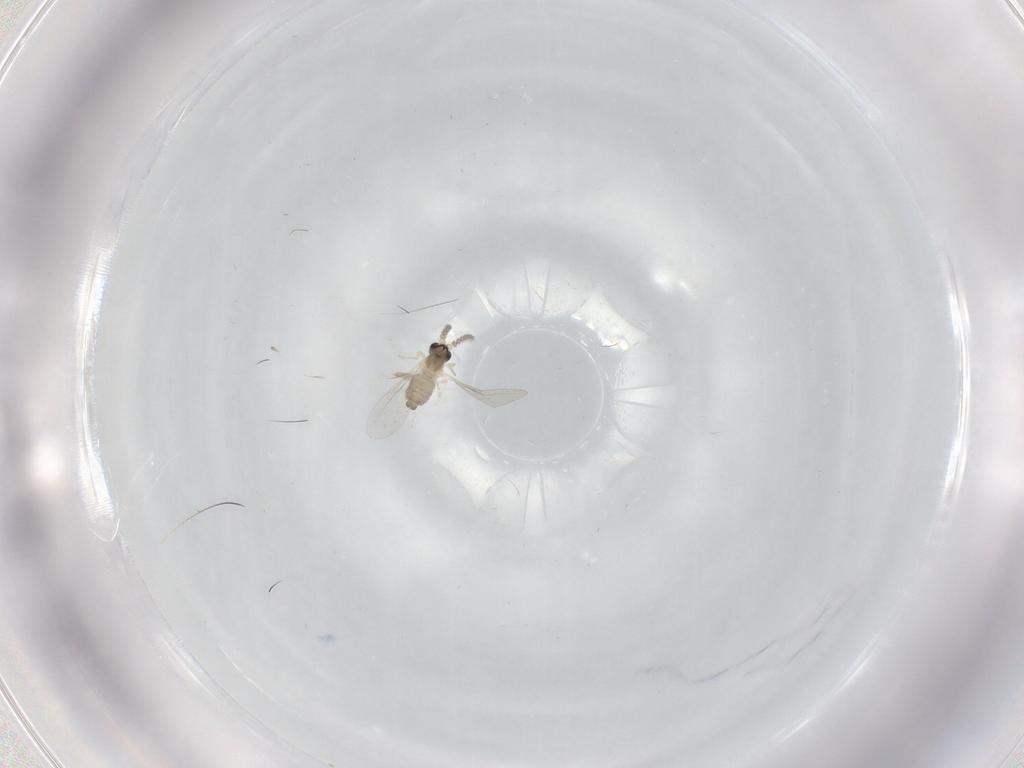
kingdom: Animalia
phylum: Arthropoda
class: Insecta
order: Diptera
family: Cecidomyiidae
